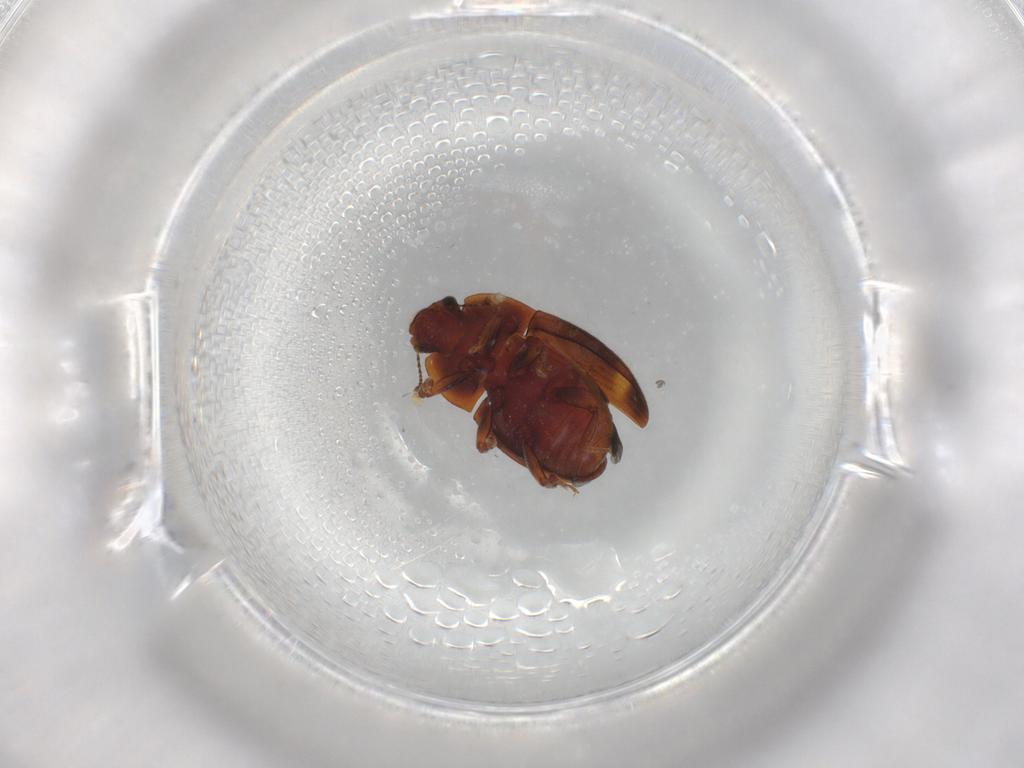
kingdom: Animalia
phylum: Arthropoda
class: Insecta
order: Coleoptera
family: Nitidulidae
